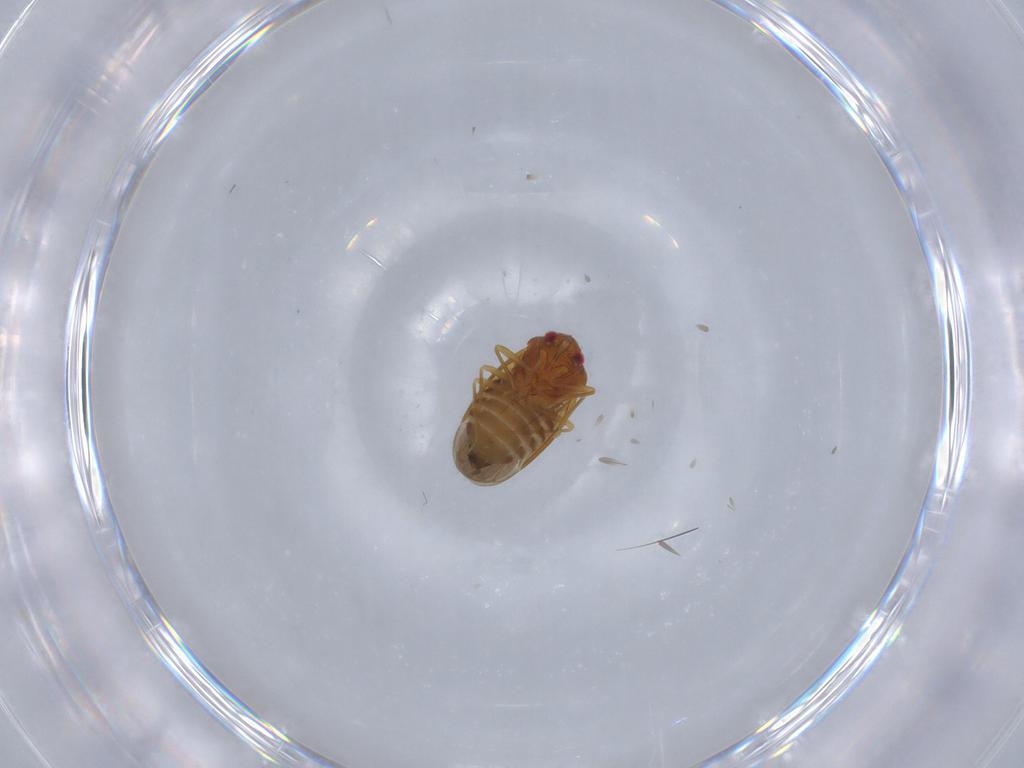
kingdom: Animalia
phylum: Arthropoda
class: Insecta
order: Hemiptera
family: Schizopteridae
